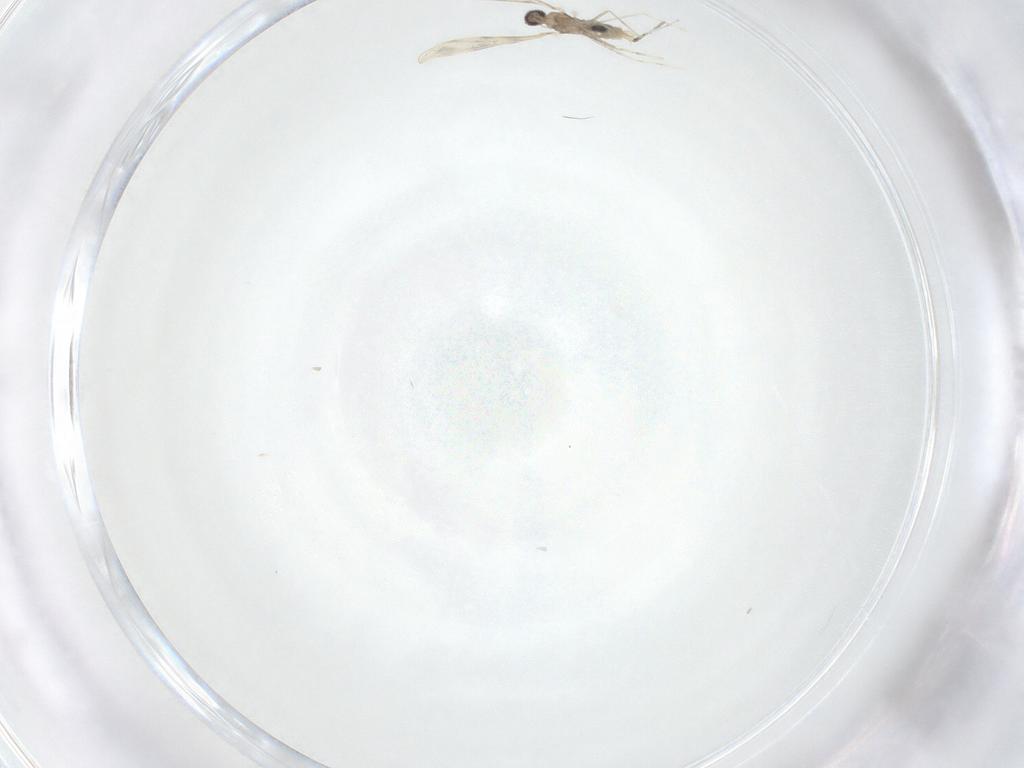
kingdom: Animalia
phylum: Arthropoda
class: Insecta
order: Diptera
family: Cecidomyiidae
